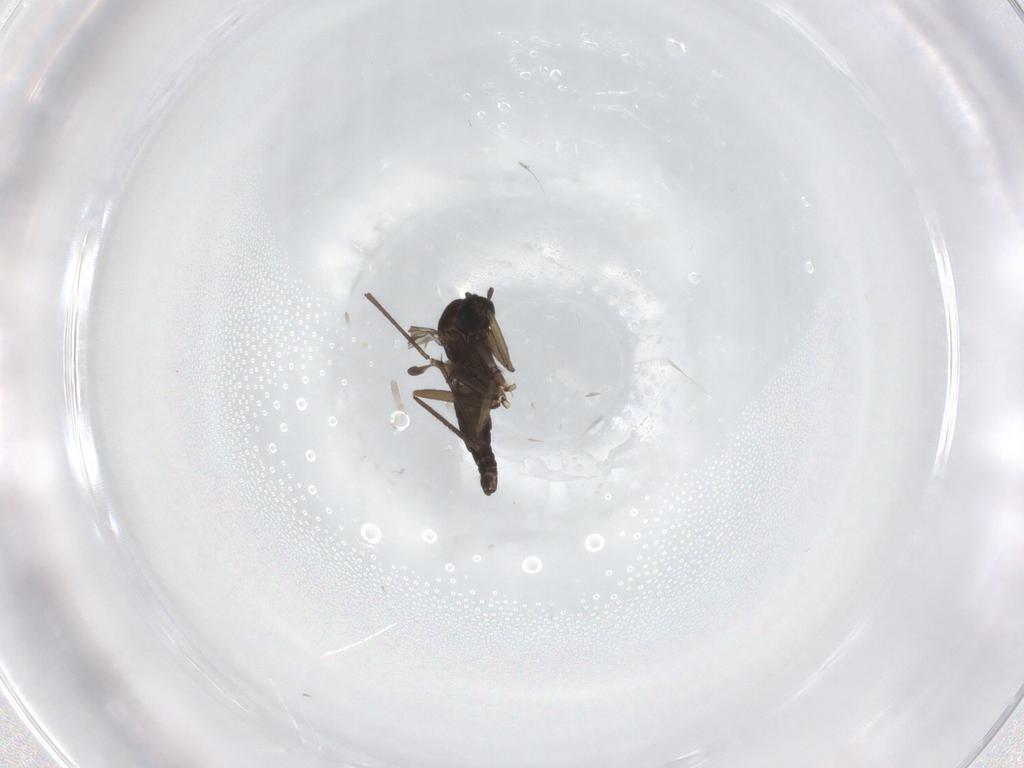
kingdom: Animalia
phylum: Arthropoda
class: Insecta
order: Diptera
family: Sciaridae
